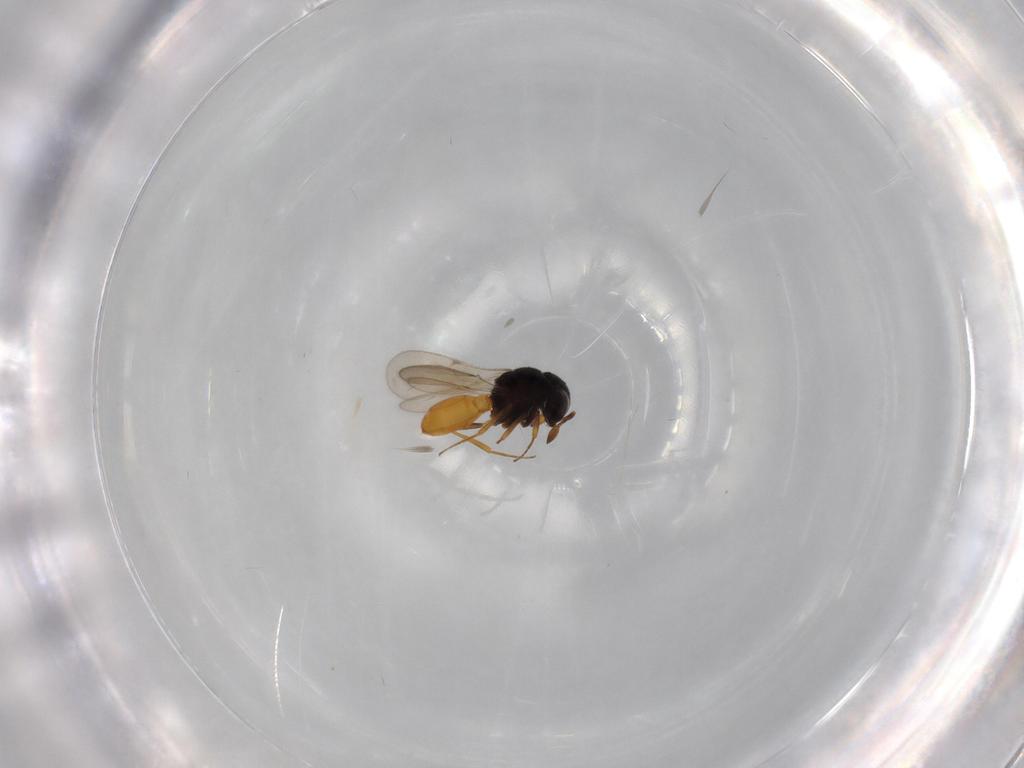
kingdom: Animalia
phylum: Arthropoda
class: Insecta
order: Hymenoptera
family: Scelionidae
